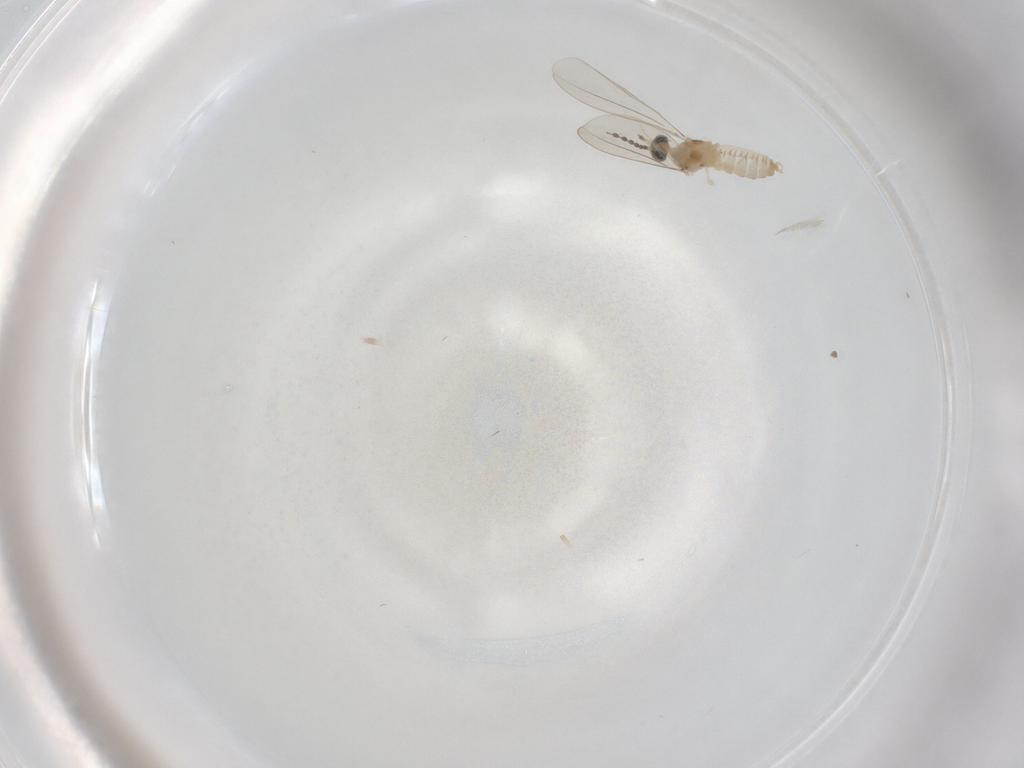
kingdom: Animalia
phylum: Arthropoda
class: Insecta
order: Diptera
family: Cecidomyiidae
